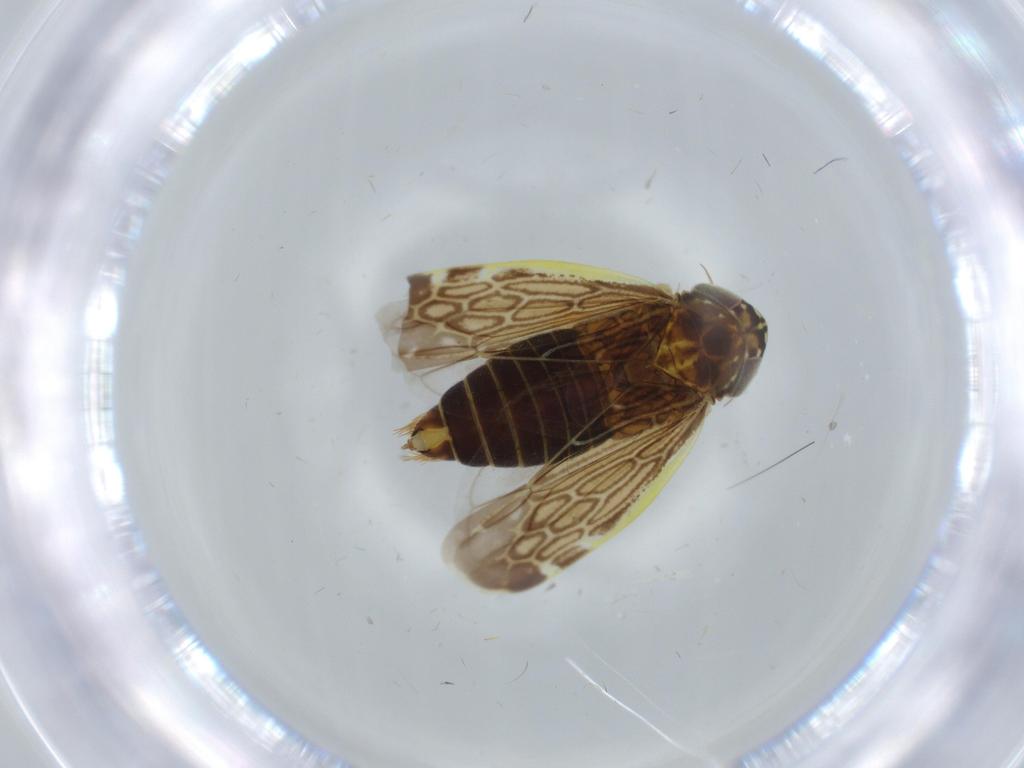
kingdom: Animalia
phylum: Arthropoda
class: Insecta
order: Hemiptera
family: Cicadellidae
